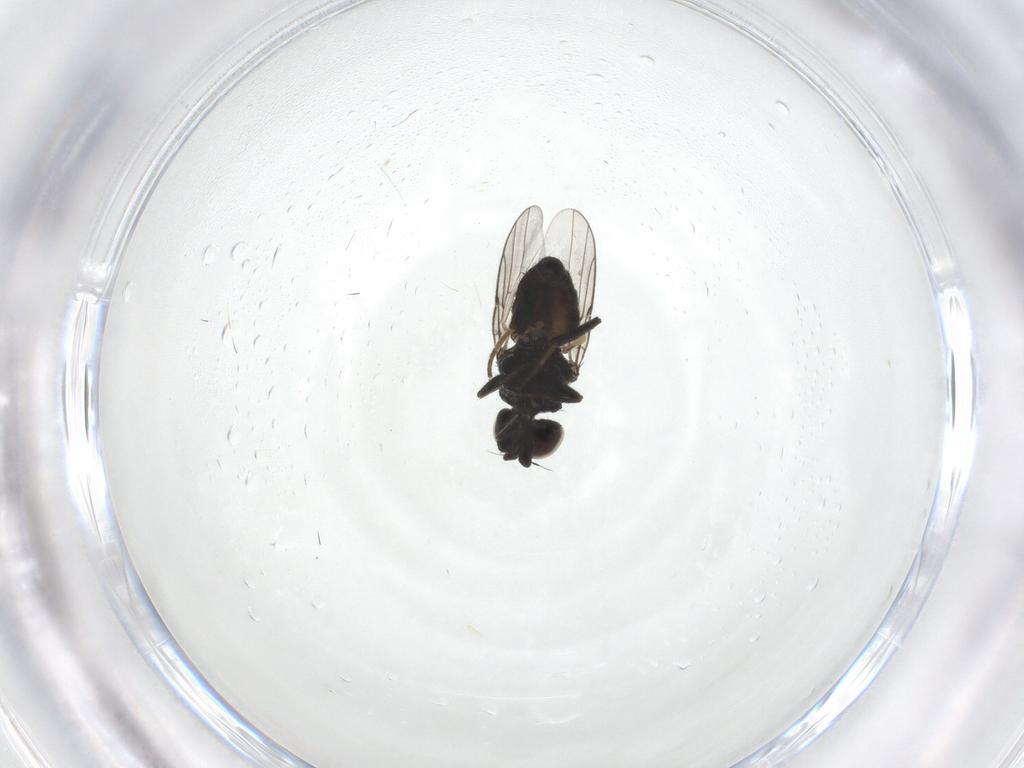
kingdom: Animalia
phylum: Arthropoda
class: Insecta
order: Diptera
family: Chloropidae
